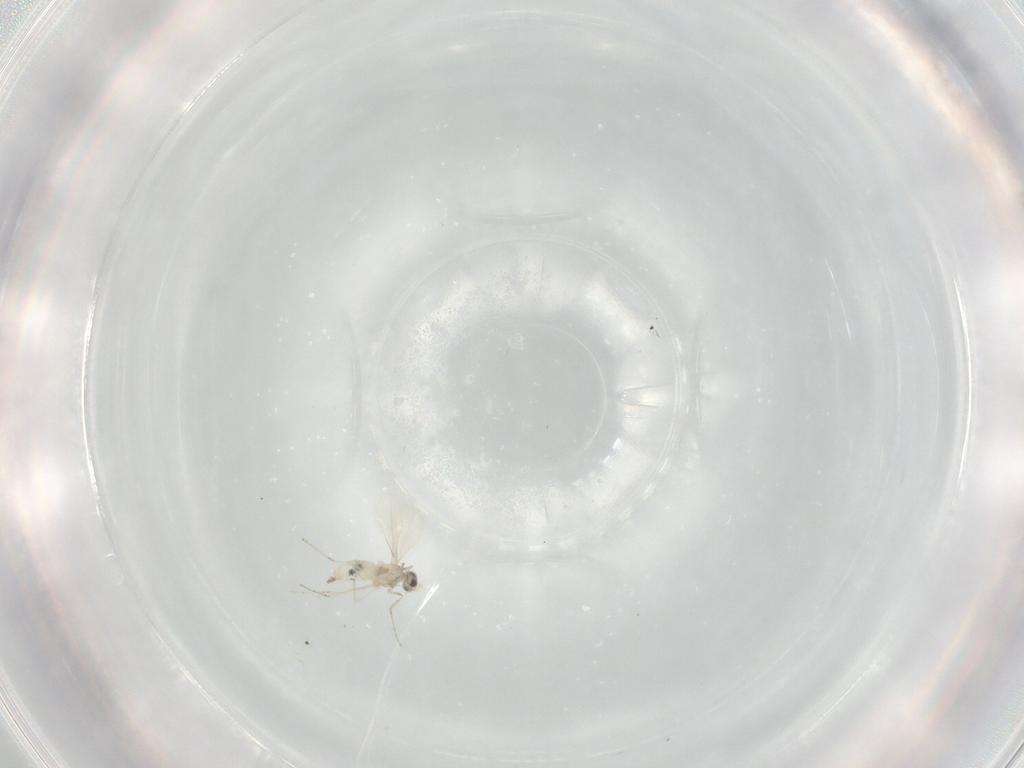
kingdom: Animalia
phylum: Arthropoda
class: Insecta
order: Diptera
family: Cecidomyiidae
